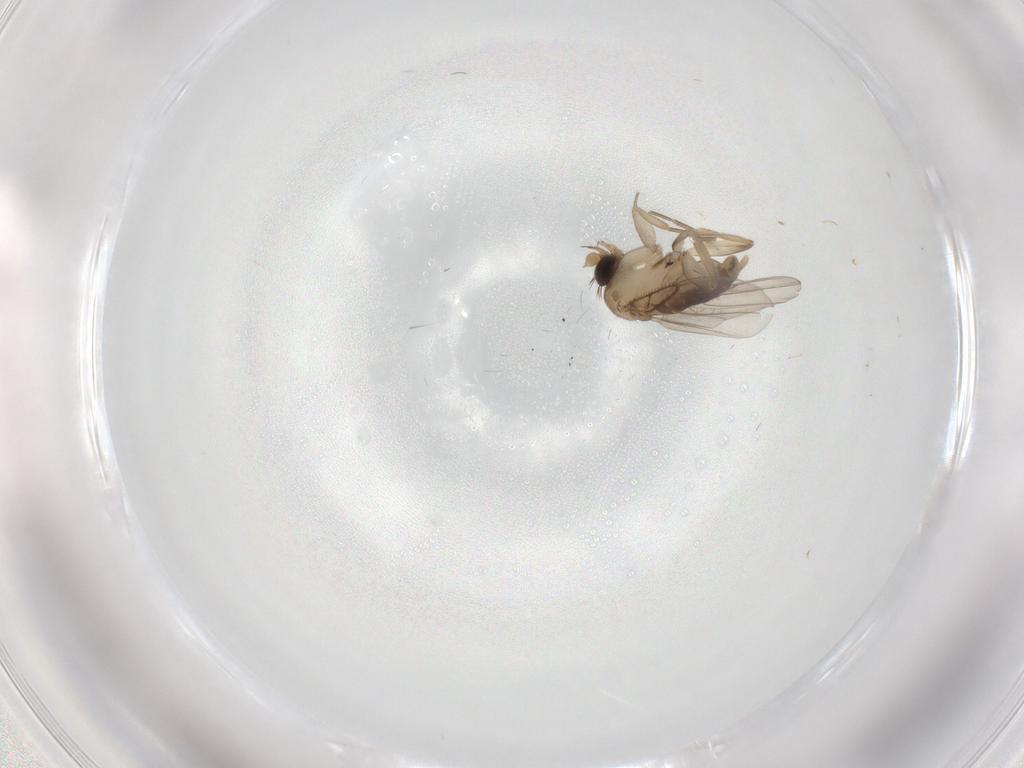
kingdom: Animalia
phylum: Arthropoda
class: Insecta
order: Diptera
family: Phoridae
